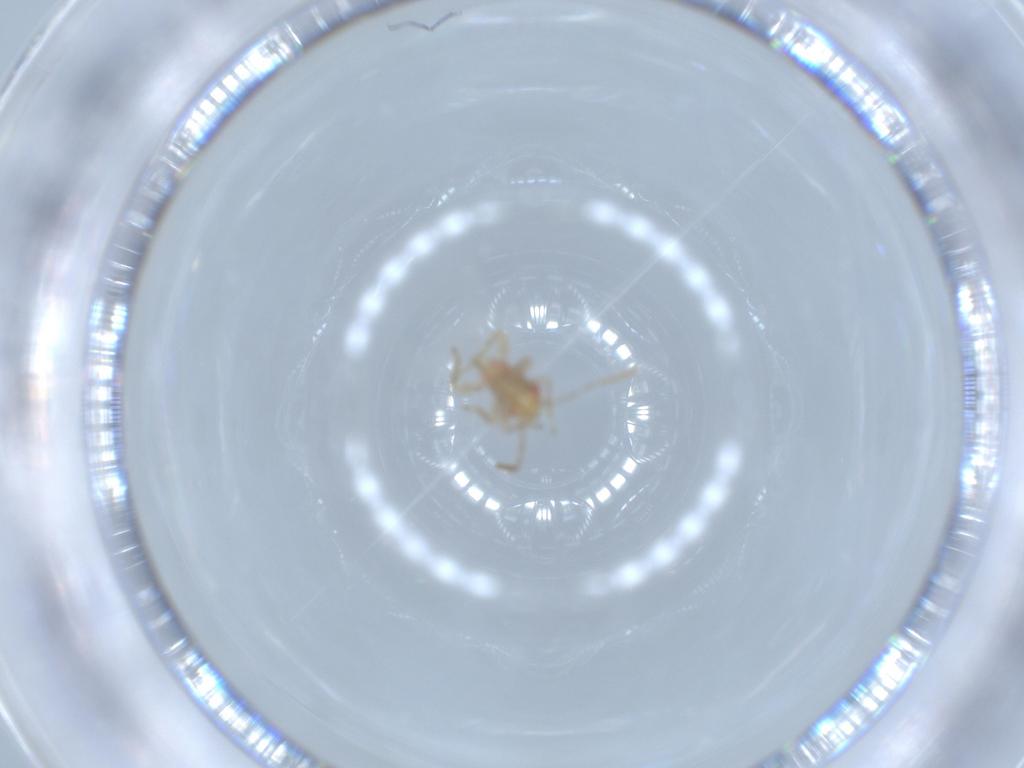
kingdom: Animalia
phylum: Arthropoda
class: Insecta
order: Hemiptera
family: Miridae
